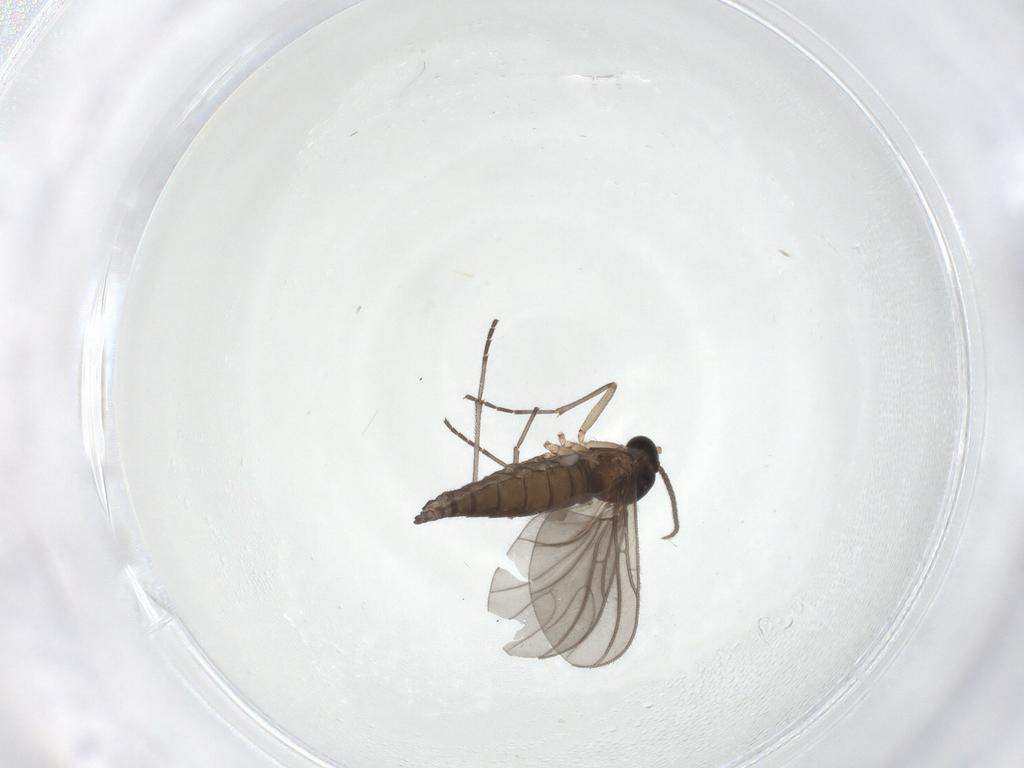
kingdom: Animalia
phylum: Arthropoda
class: Insecta
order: Diptera
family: Sciaridae
